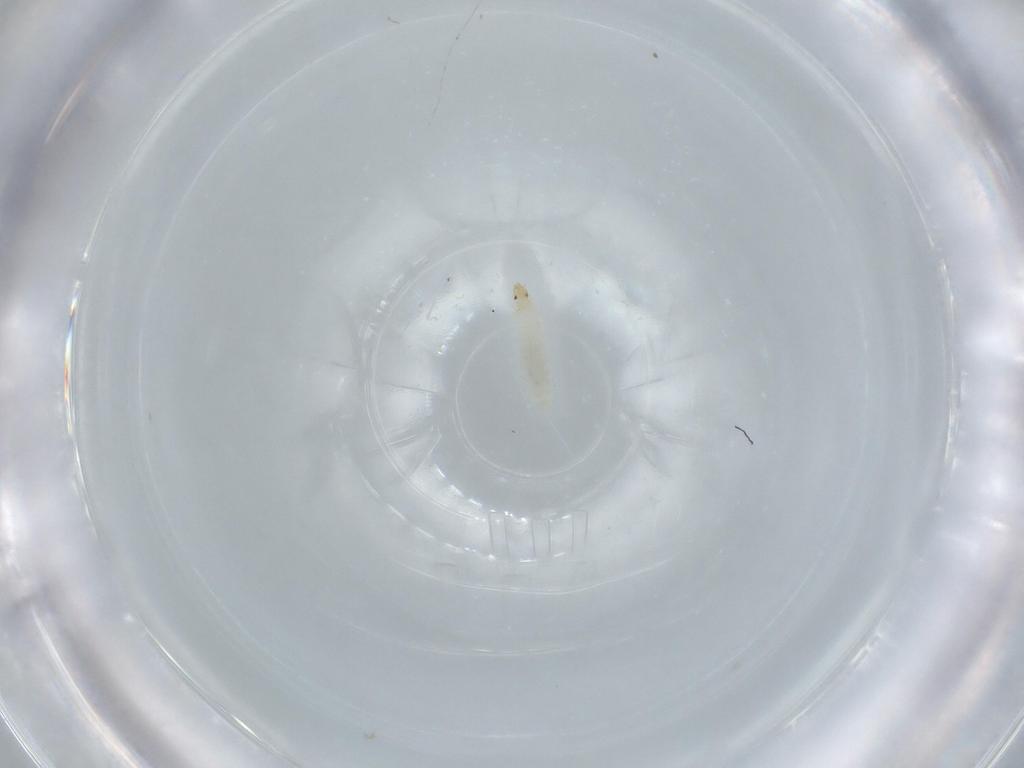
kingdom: Animalia
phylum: Arthropoda
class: Insecta
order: Diptera
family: Phoridae
